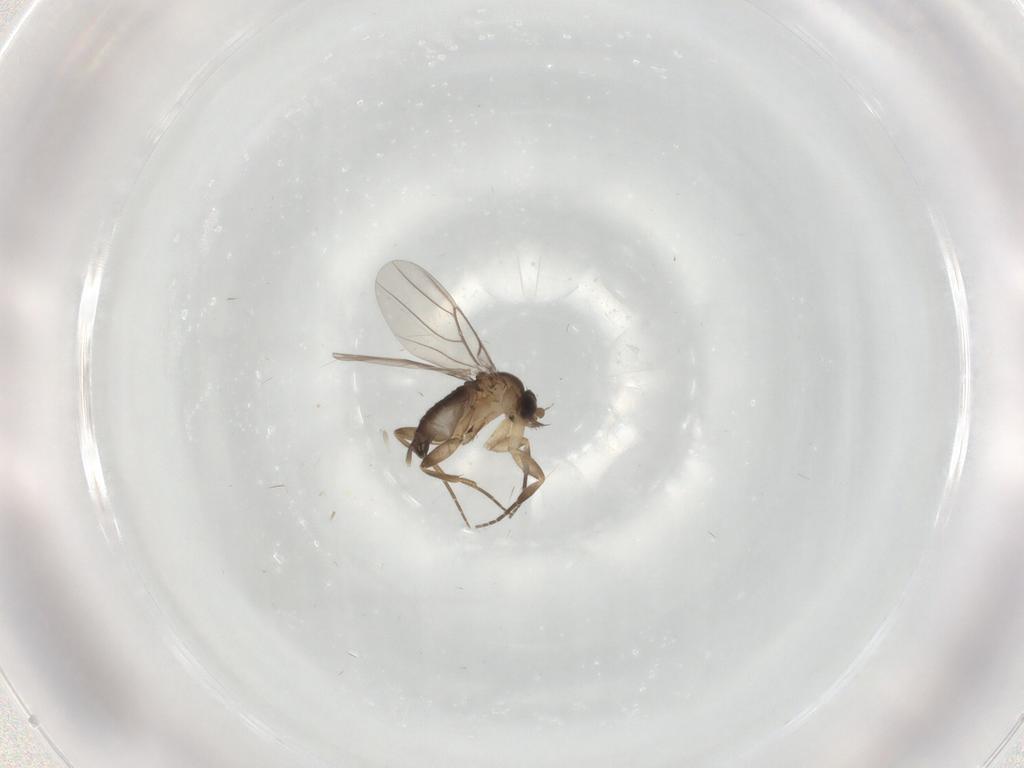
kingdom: Animalia
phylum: Arthropoda
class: Insecta
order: Diptera
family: Phoridae
